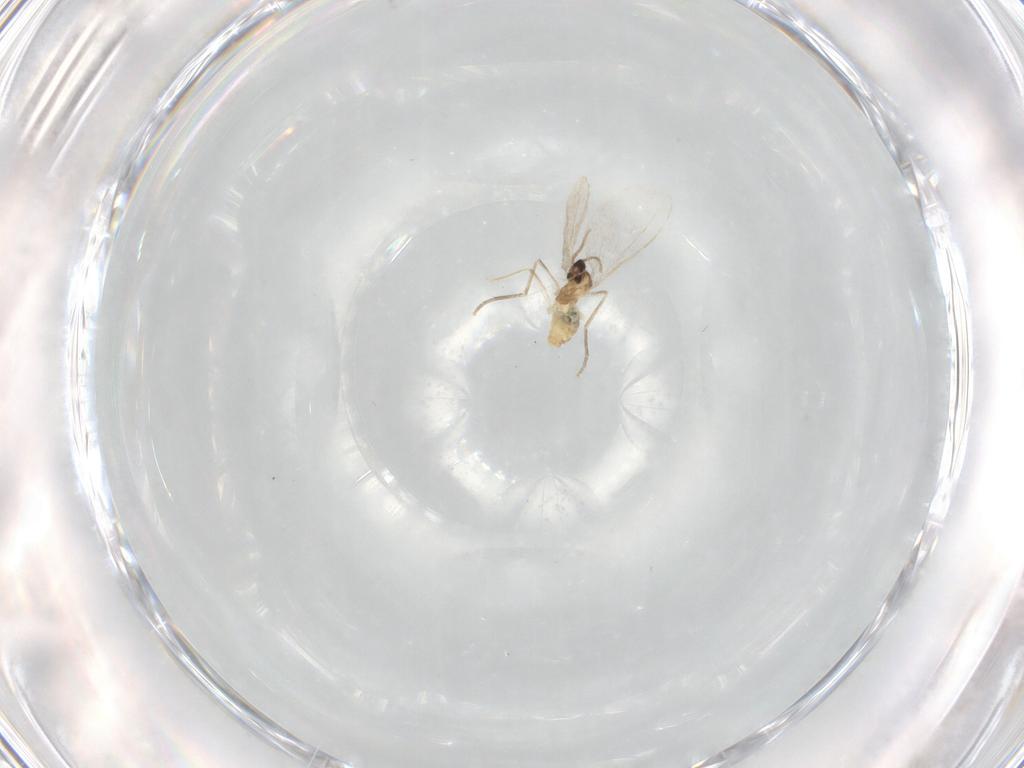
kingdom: Animalia
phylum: Arthropoda
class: Insecta
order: Diptera
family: Cecidomyiidae
